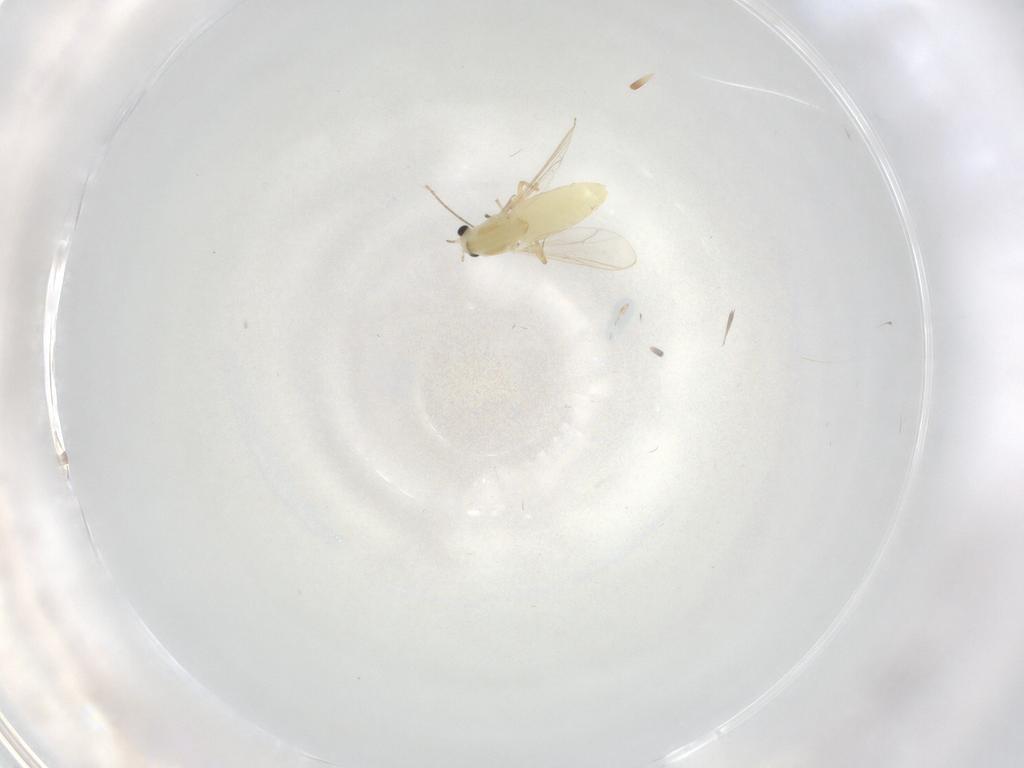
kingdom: Animalia
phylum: Arthropoda
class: Insecta
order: Diptera
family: Chironomidae
